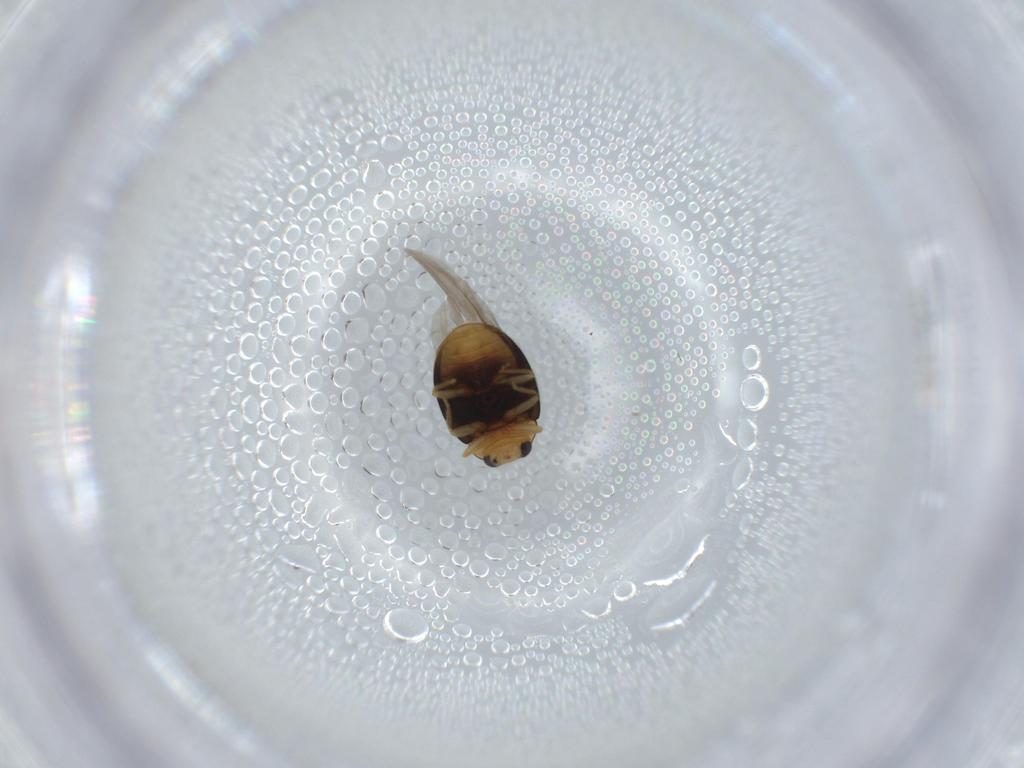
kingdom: Animalia
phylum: Arthropoda
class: Insecta
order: Coleoptera
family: Coccinellidae
